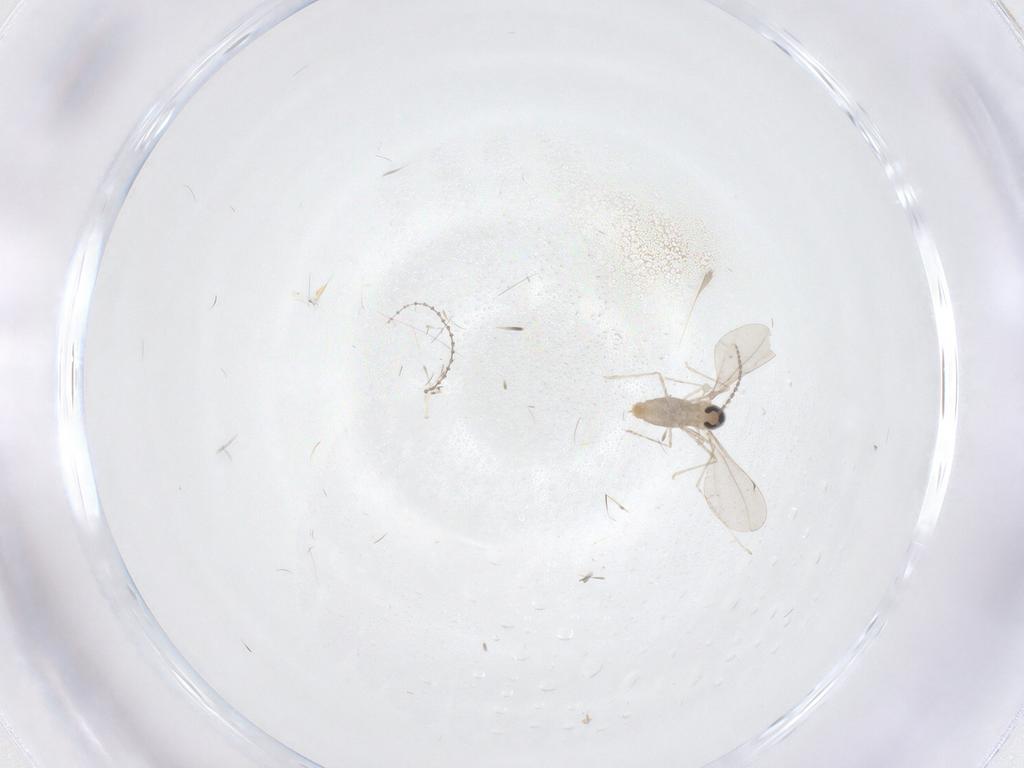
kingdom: Animalia
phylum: Arthropoda
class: Insecta
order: Diptera
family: Cecidomyiidae
